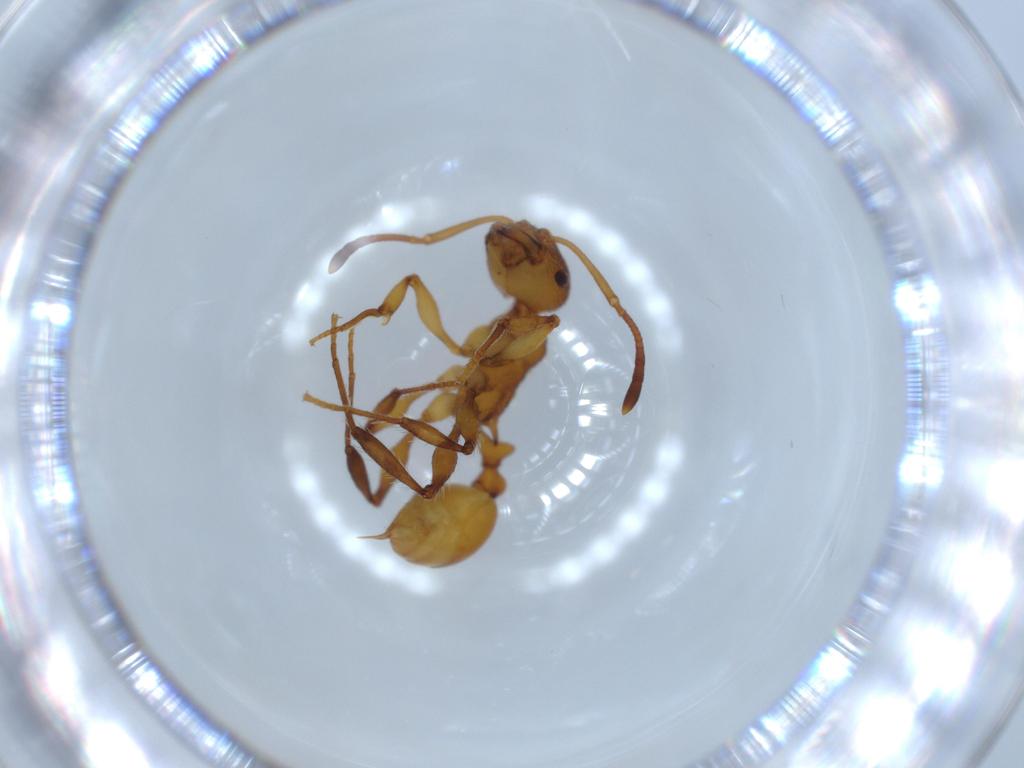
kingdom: Animalia
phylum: Arthropoda
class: Insecta
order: Hymenoptera
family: Formicidae
